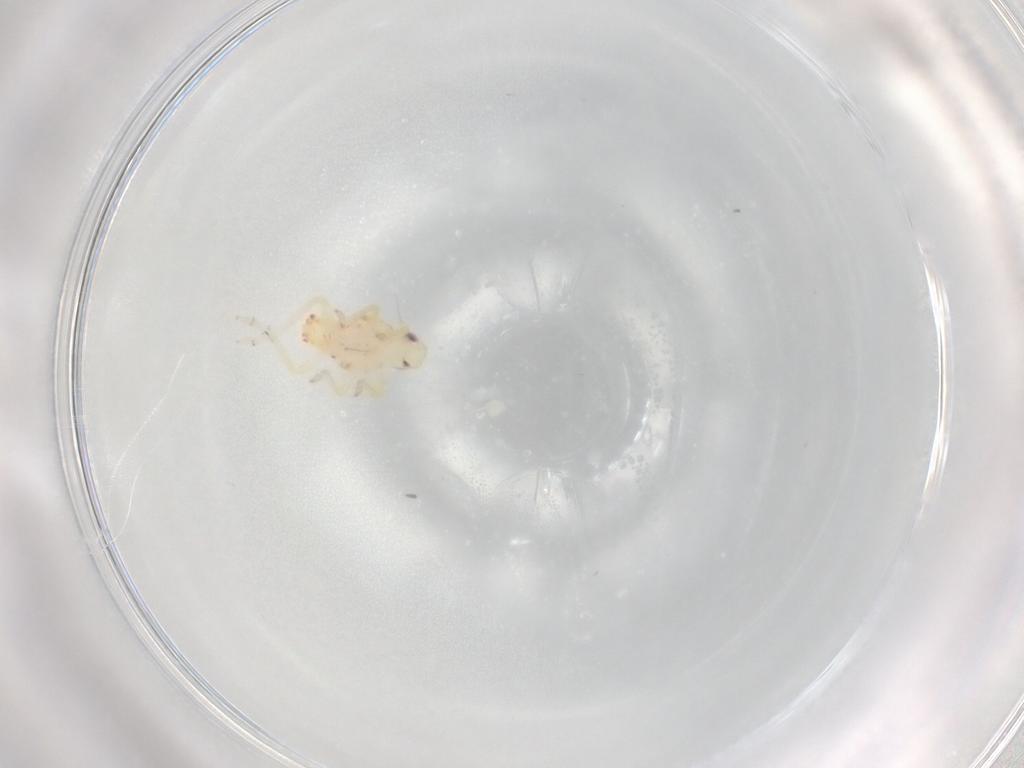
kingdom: Animalia
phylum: Arthropoda
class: Insecta
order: Hemiptera
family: Tropiduchidae
